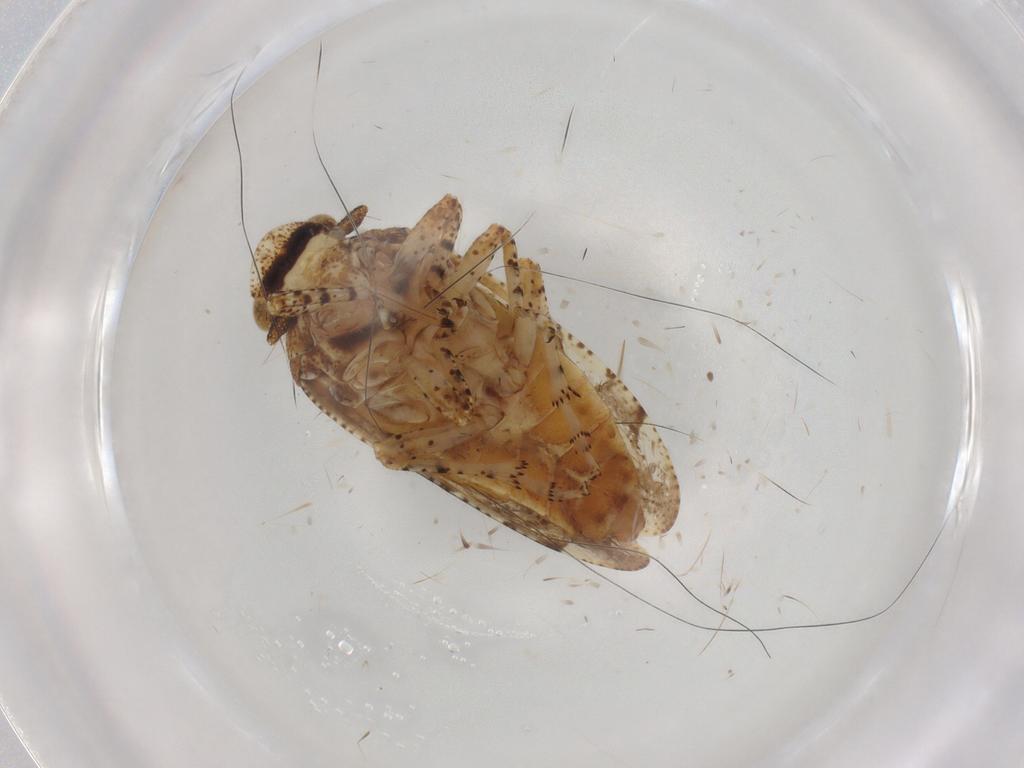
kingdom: Animalia
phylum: Arthropoda
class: Insecta
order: Hemiptera
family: Tettigometridae
